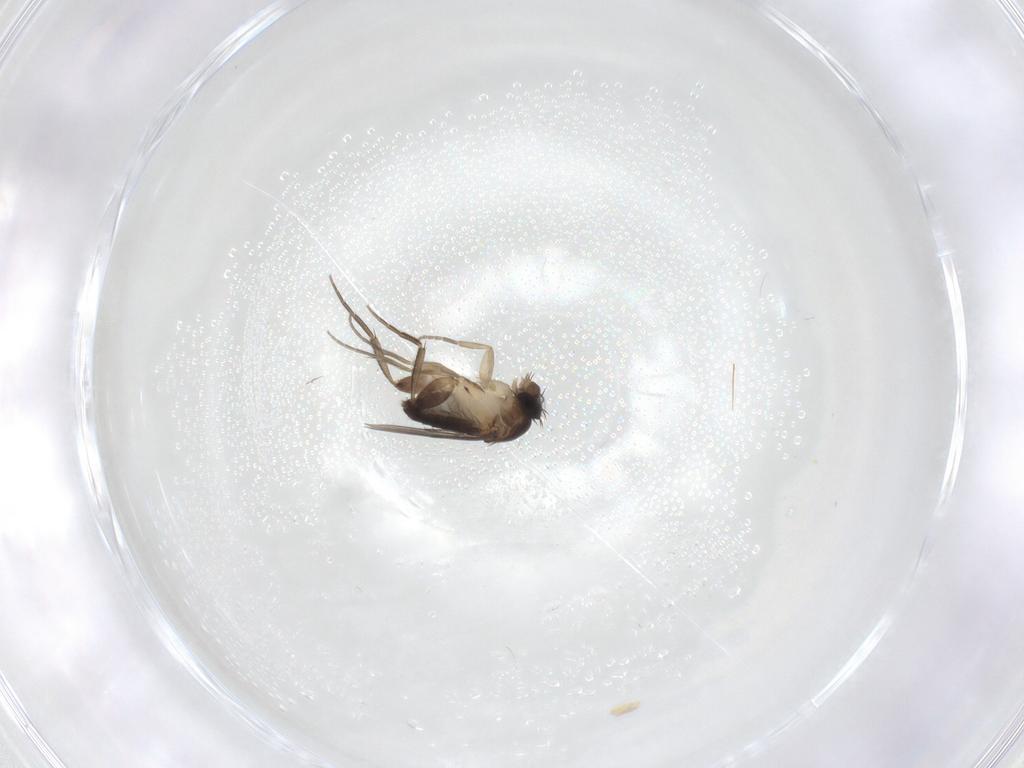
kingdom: Animalia
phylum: Arthropoda
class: Insecta
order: Diptera
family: Phoridae
